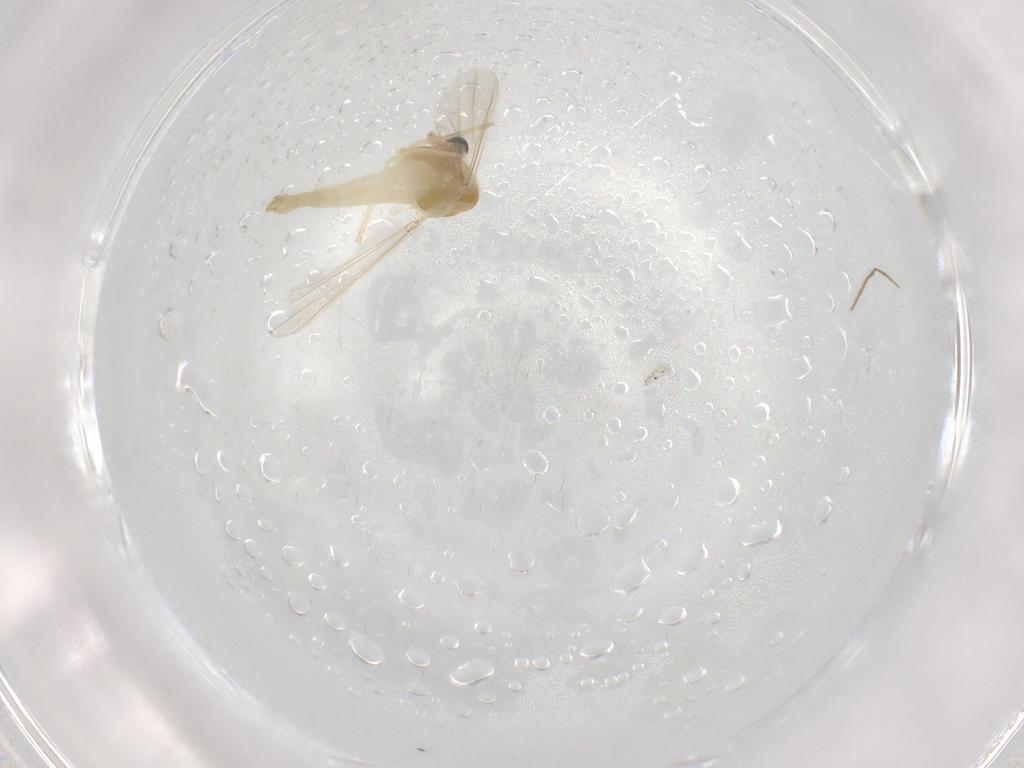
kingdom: Animalia
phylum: Arthropoda
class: Insecta
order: Diptera
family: Chironomidae
